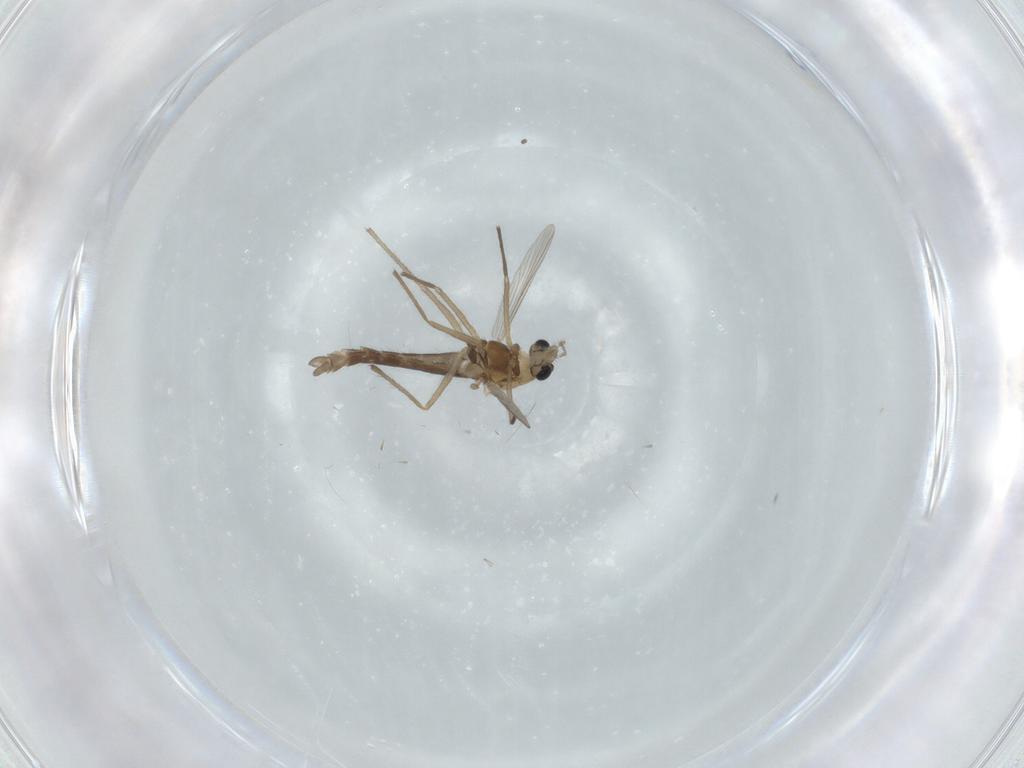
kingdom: Animalia
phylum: Arthropoda
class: Insecta
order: Diptera
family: Chironomidae
